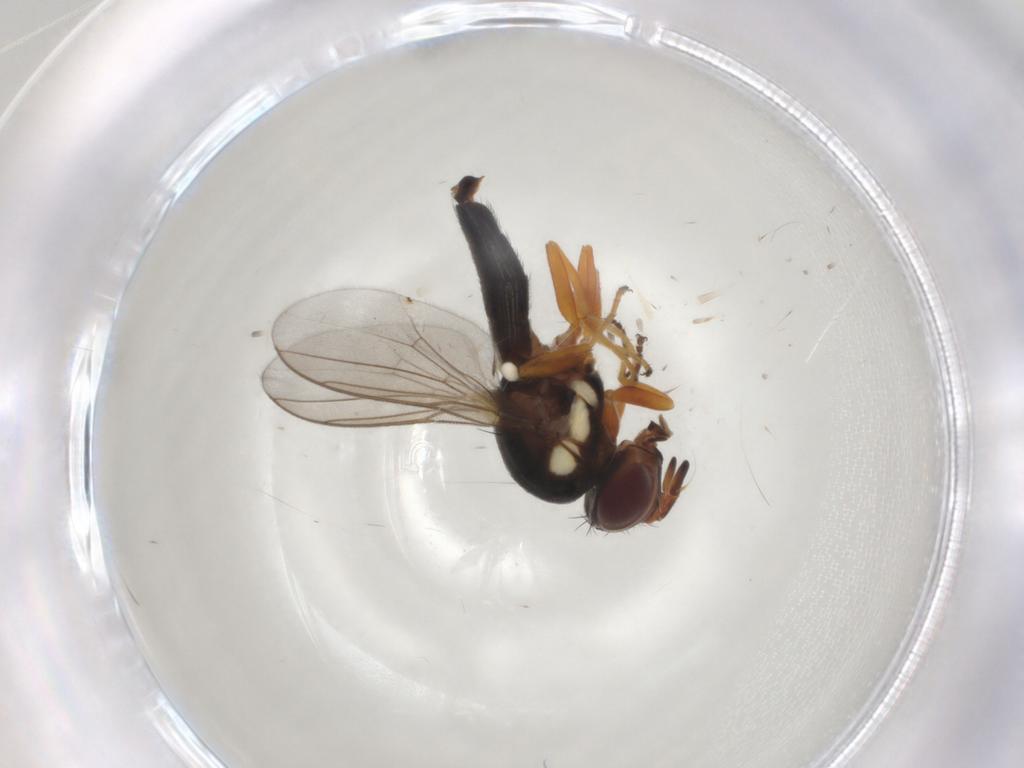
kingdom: Animalia
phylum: Arthropoda
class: Insecta
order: Diptera
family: Chloropidae
